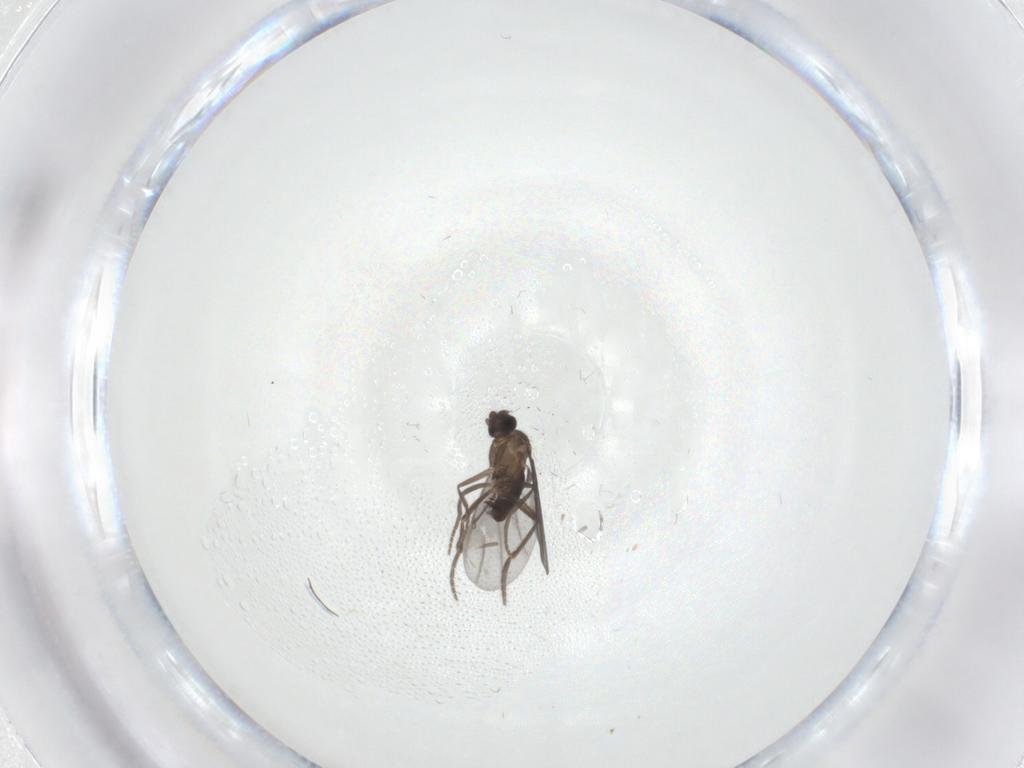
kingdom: Animalia
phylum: Arthropoda
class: Insecta
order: Diptera
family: Phoridae
